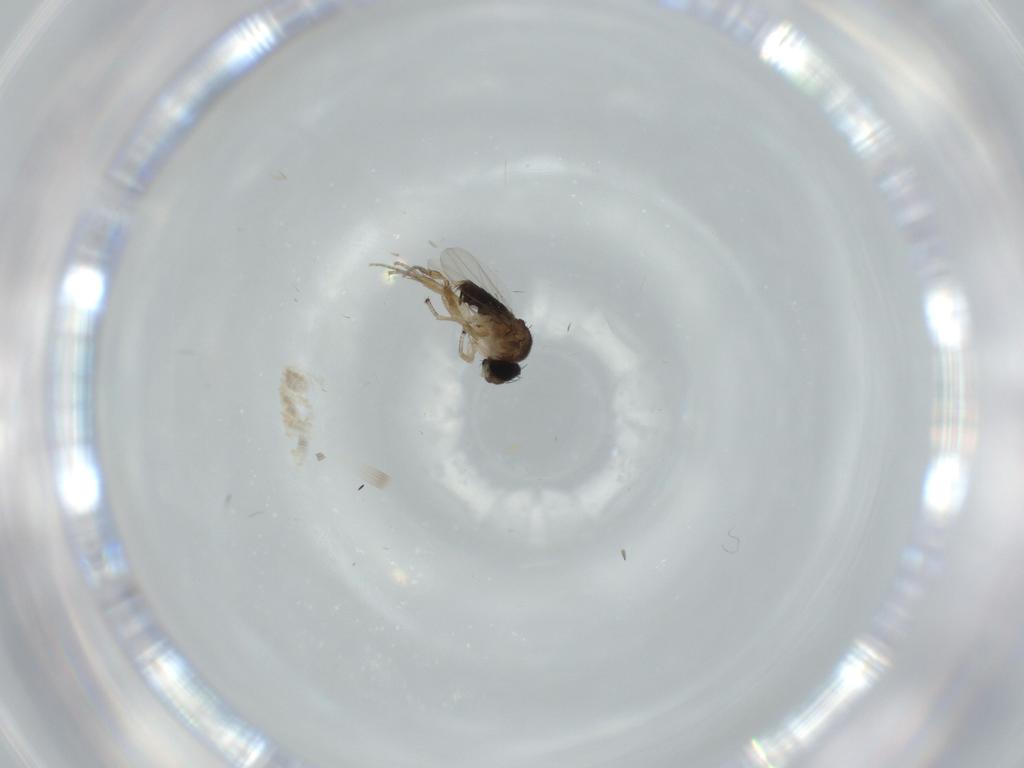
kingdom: Animalia
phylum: Arthropoda
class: Insecta
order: Diptera
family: Phoridae
